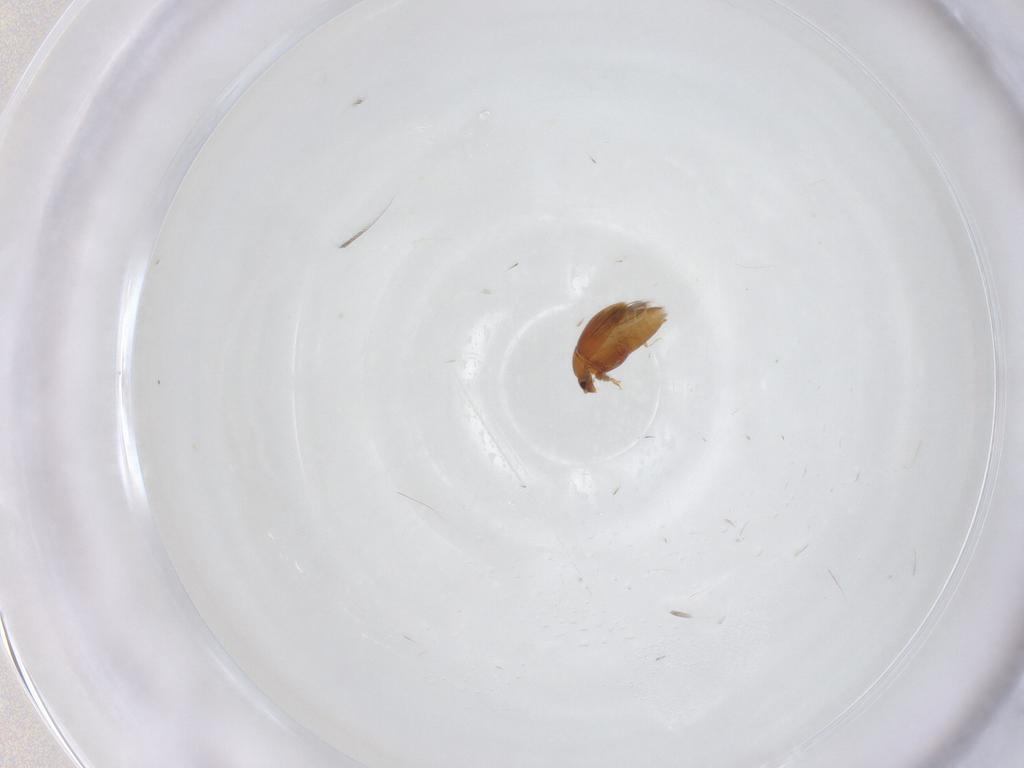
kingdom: Animalia
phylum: Arthropoda
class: Insecta
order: Coleoptera
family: Corylophidae
